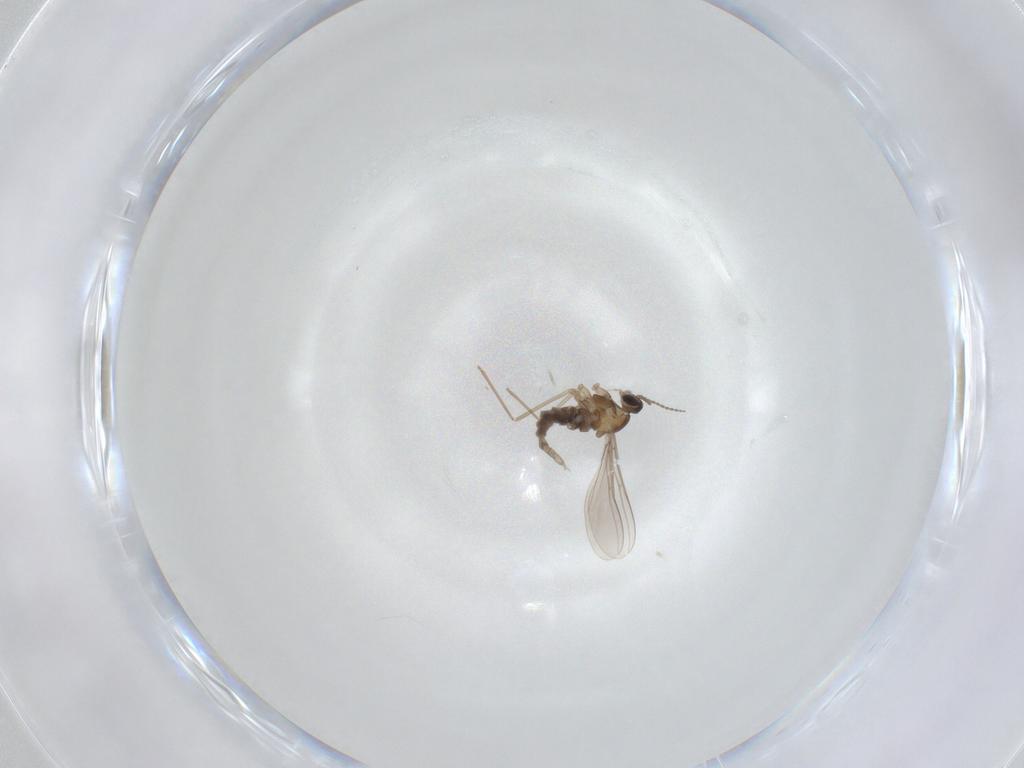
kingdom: Animalia
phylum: Arthropoda
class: Insecta
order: Diptera
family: Cecidomyiidae
